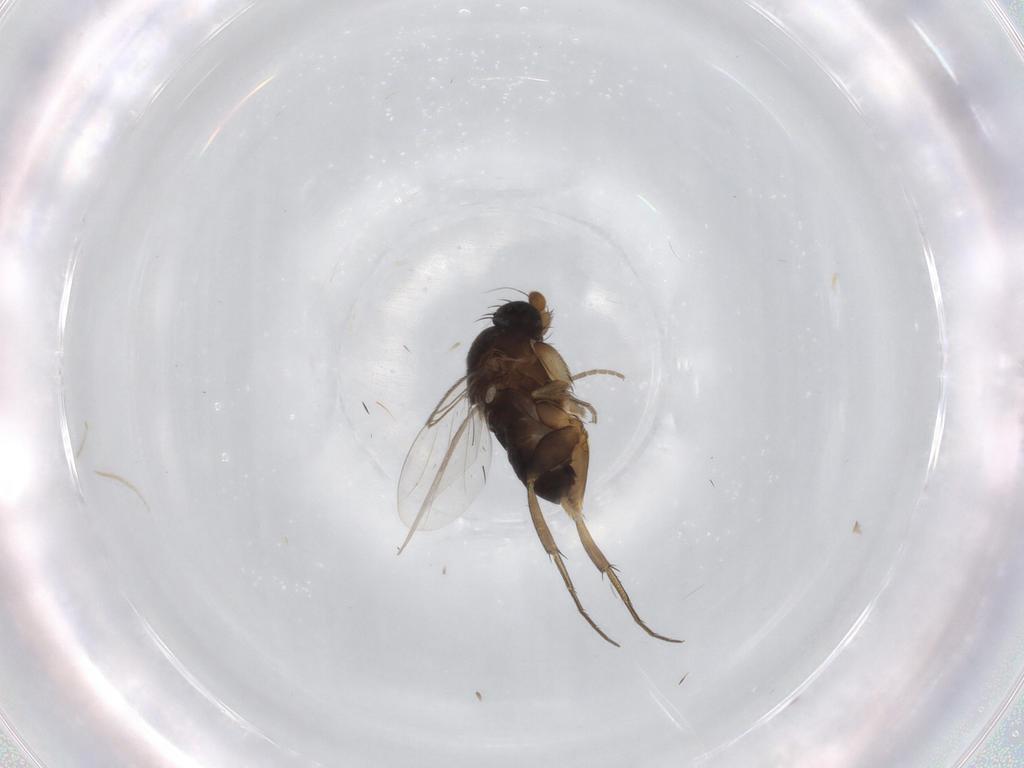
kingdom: Animalia
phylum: Arthropoda
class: Insecta
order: Diptera
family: Phoridae
